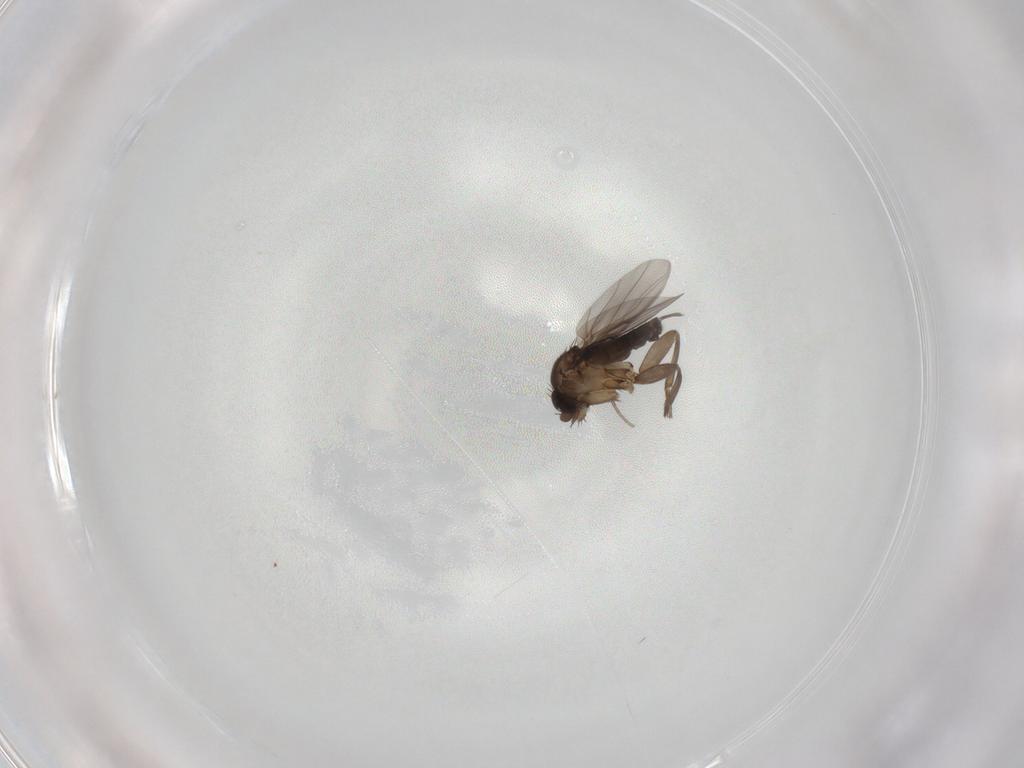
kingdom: Animalia
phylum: Arthropoda
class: Insecta
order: Diptera
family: Phoridae
